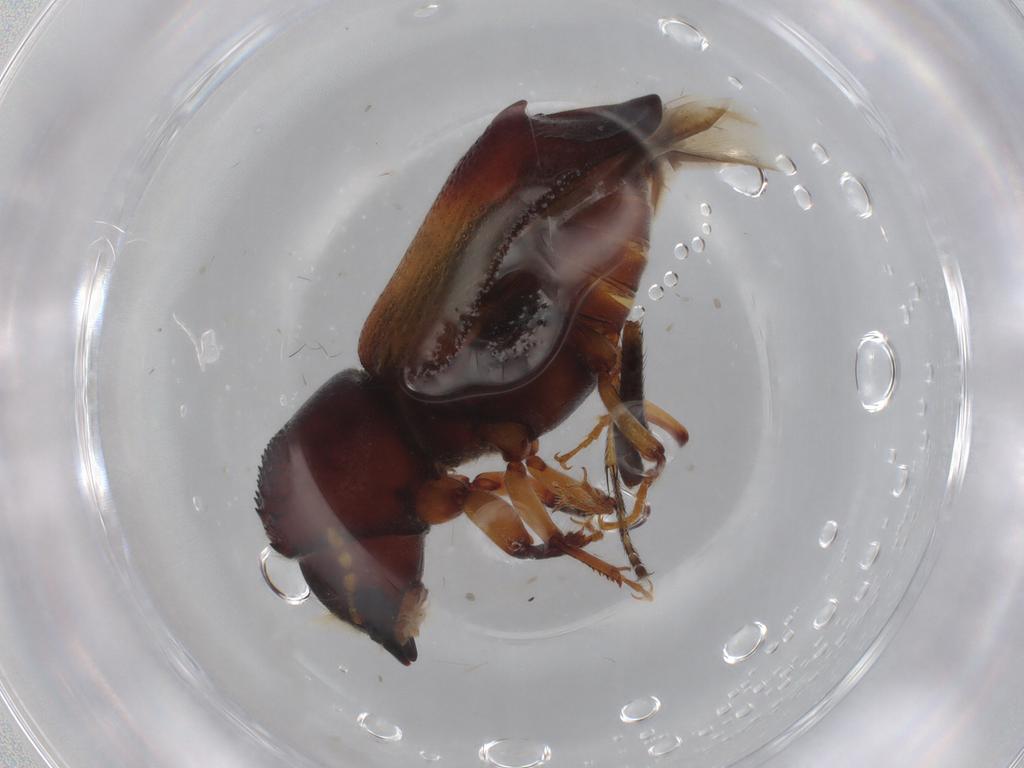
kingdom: Animalia
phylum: Arthropoda
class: Insecta
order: Coleoptera
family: Bostrichidae
